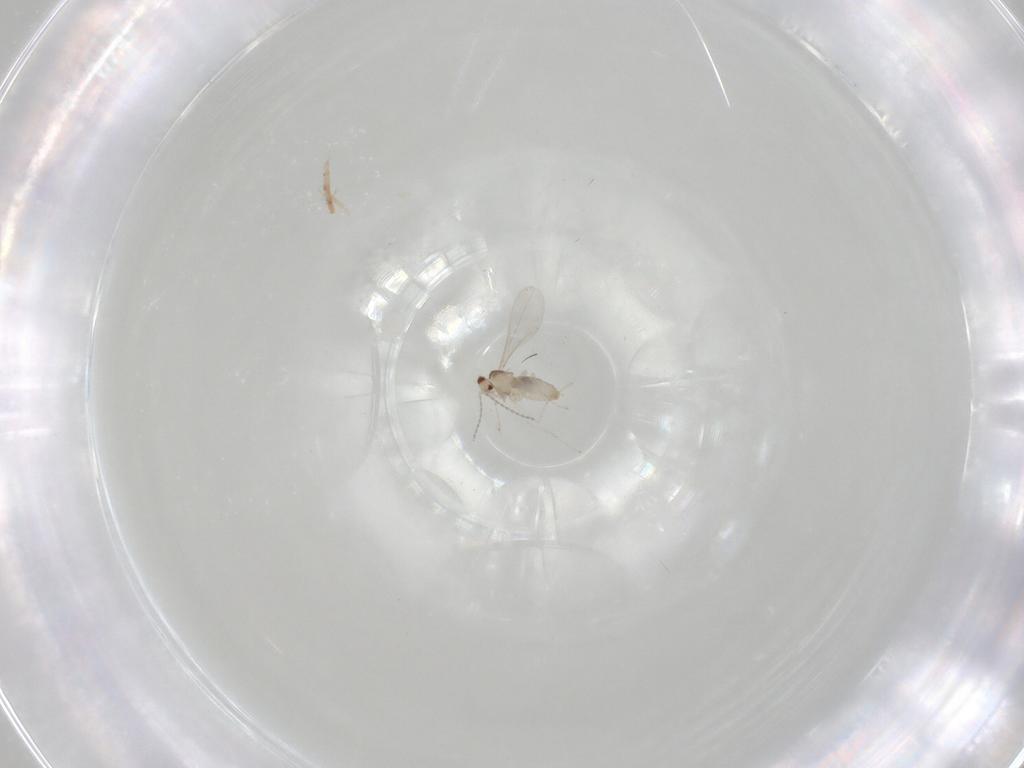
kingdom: Animalia
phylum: Arthropoda
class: Insecta
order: Diptera
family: Cecidomyiidae
